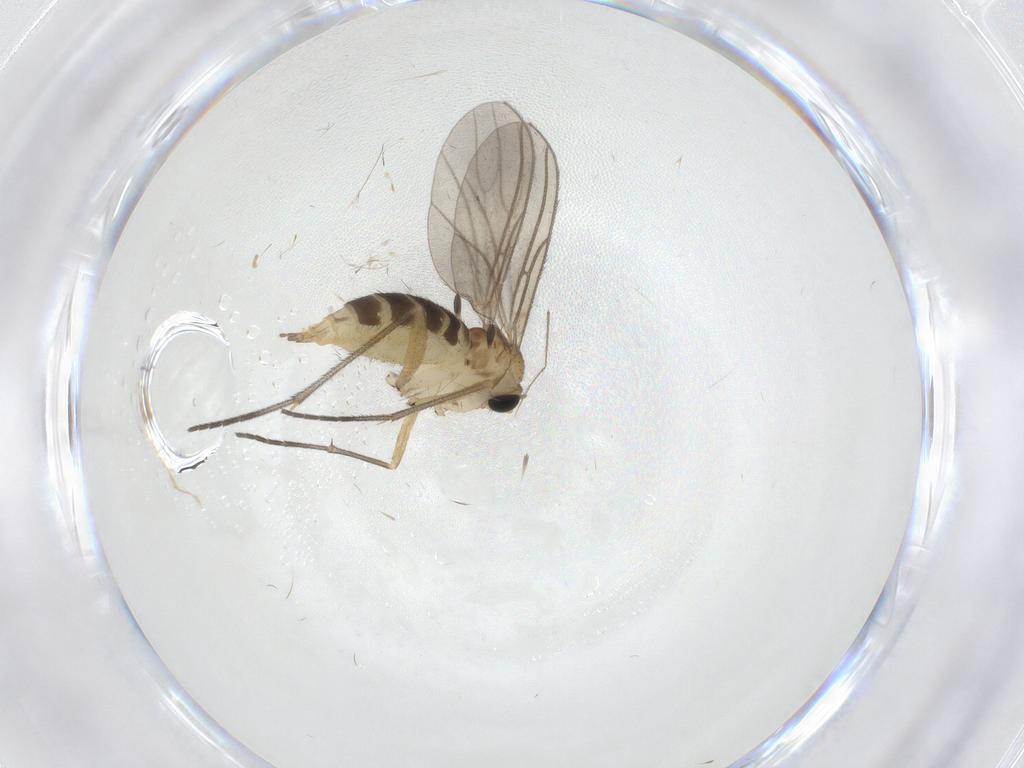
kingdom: Animalia
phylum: Arthropoda
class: Insecta
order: Diptera
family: Sciaridae
